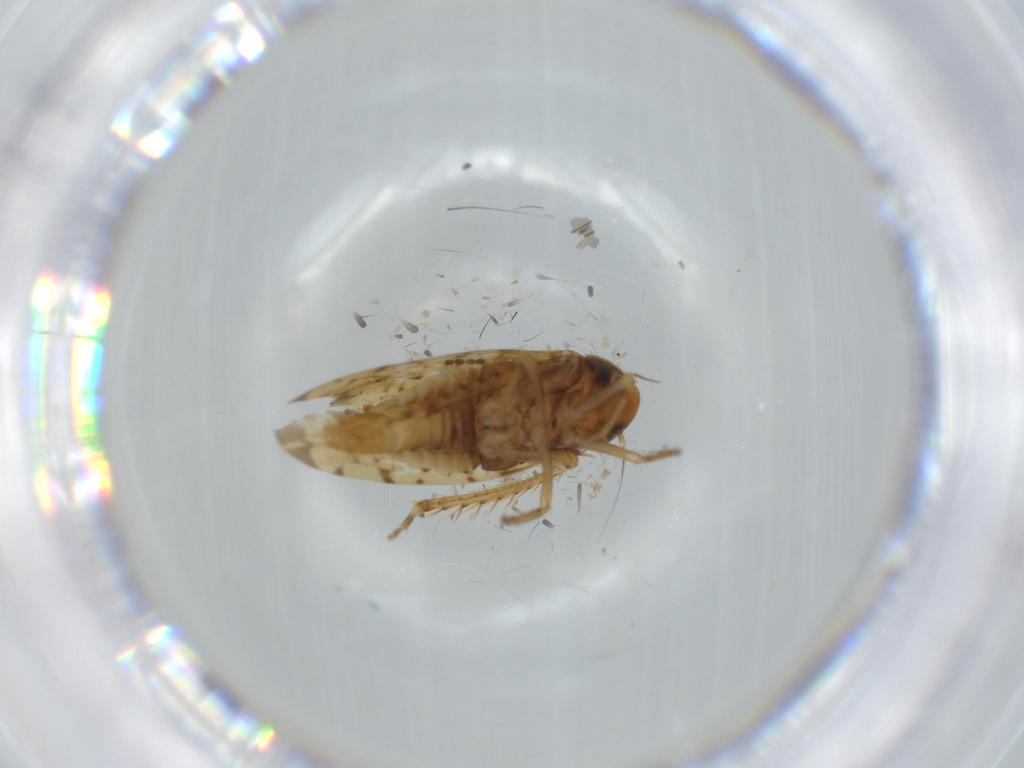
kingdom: Animalia
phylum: Arthropoda
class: Insecta
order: Hemiptera
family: Cicadellidae
